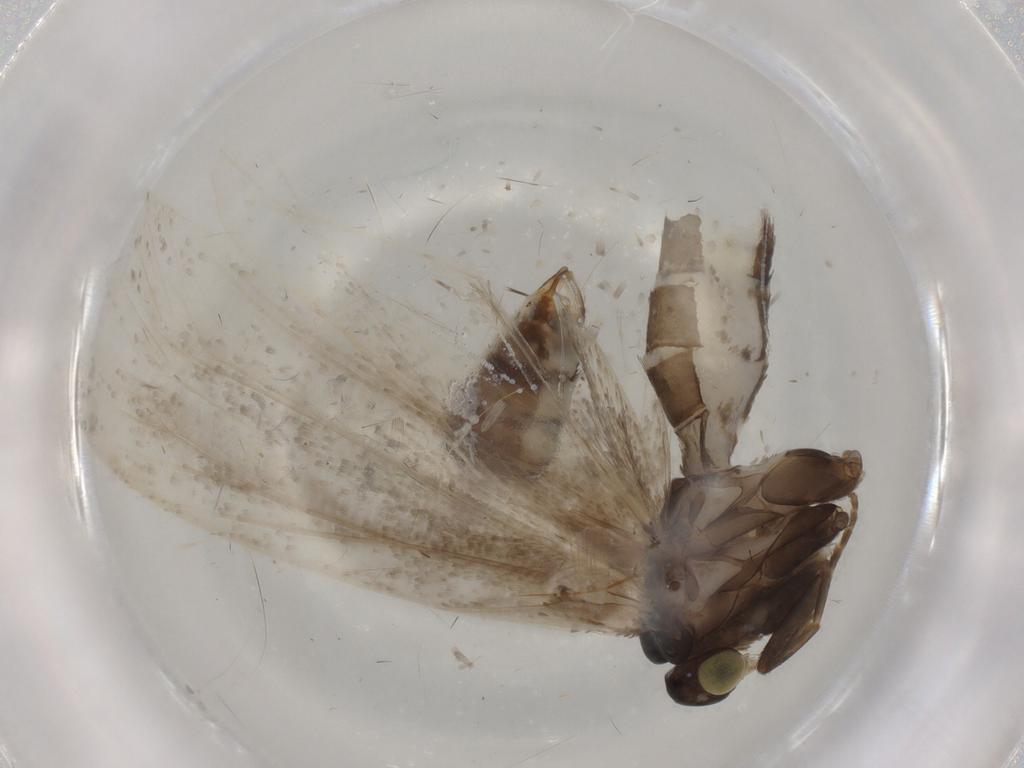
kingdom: Animalia
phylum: Arthropoda
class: Insecta
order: Lepidoptera
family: Tortricidae
